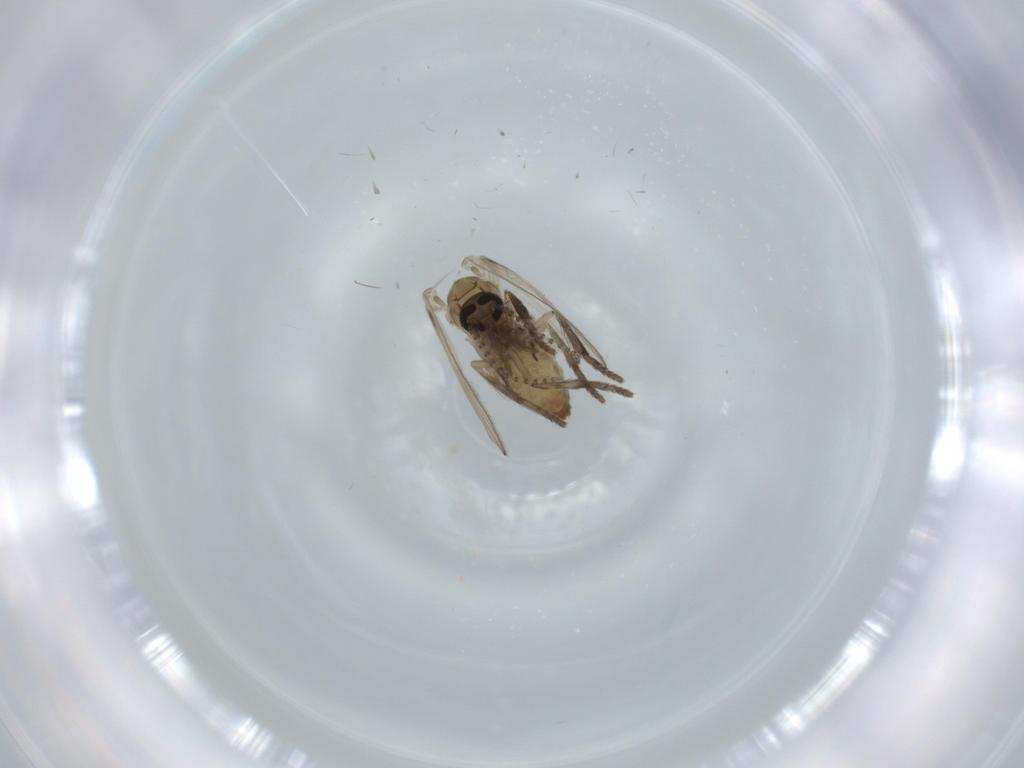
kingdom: Animalia
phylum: Arthropoda
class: Insecta
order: Diptera
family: Psychodidae
